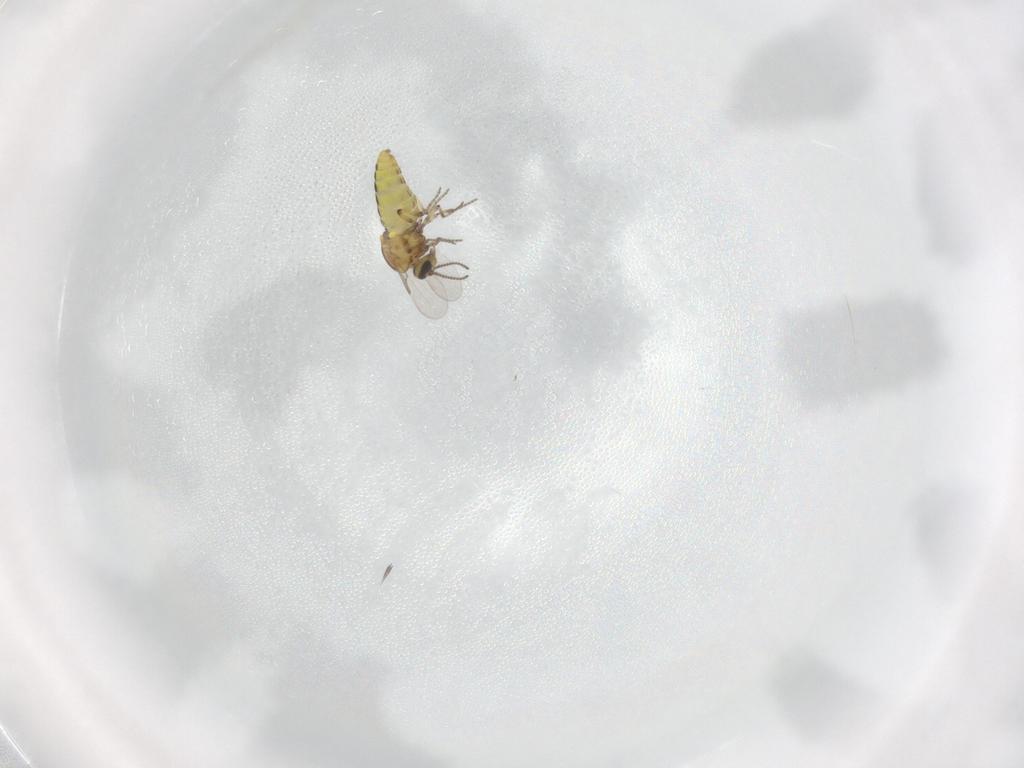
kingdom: Animalia
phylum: Arthropoda
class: Insecta
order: Diptera
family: Ceratopogonidae
